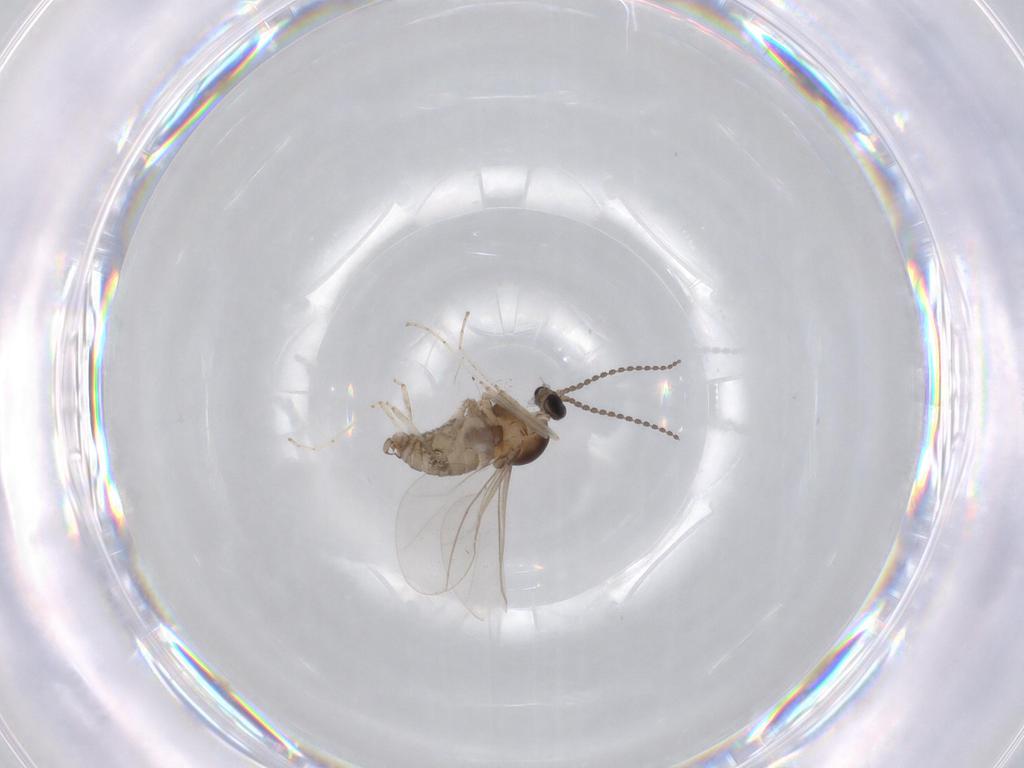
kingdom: Animalia
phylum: Arthropoda
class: Insecta
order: Diptera
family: Cecidomyiidae
